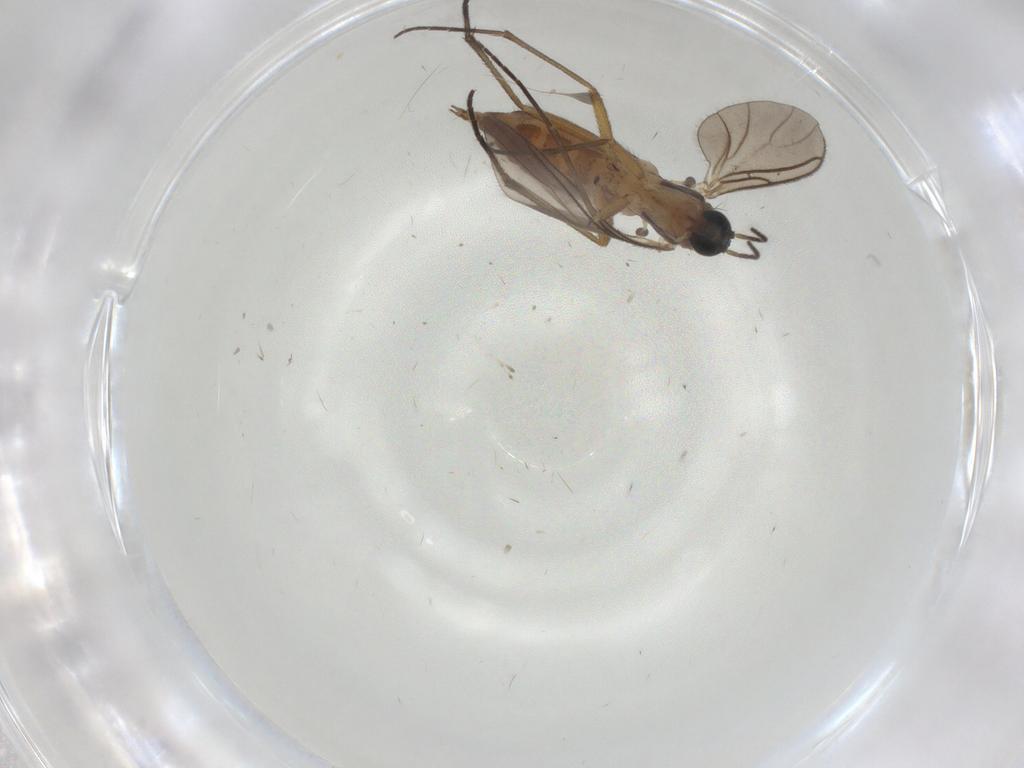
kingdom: Animalia
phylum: Arthropoda
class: Insecta
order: Diptera
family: Sciaridae
